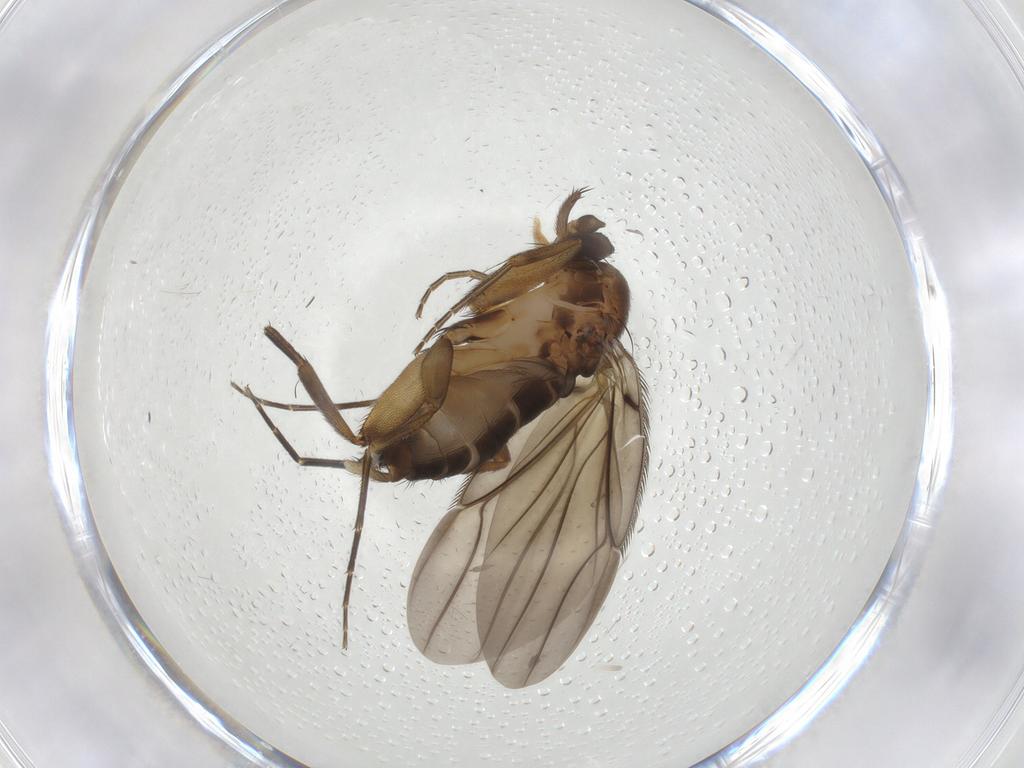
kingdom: Animalia
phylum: Arthropoda
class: Insecta
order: Diptera
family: Phoridae
